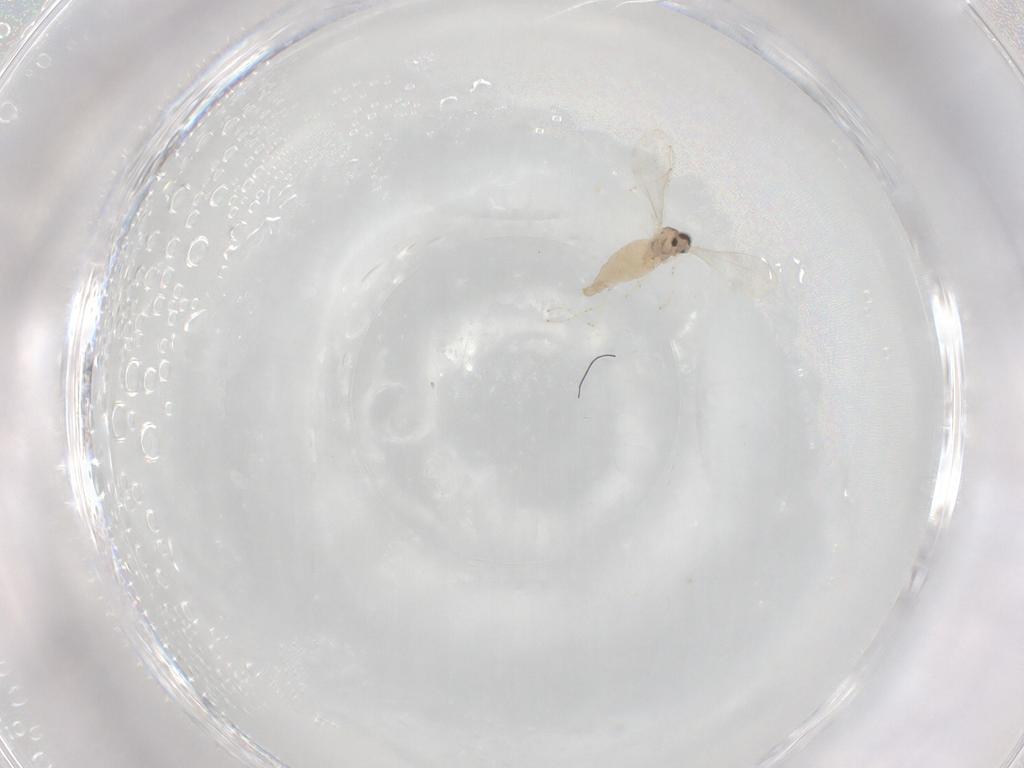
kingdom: Animalia
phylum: Arthropoda
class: Insecta
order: Diptera
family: Cecidomyiidae
